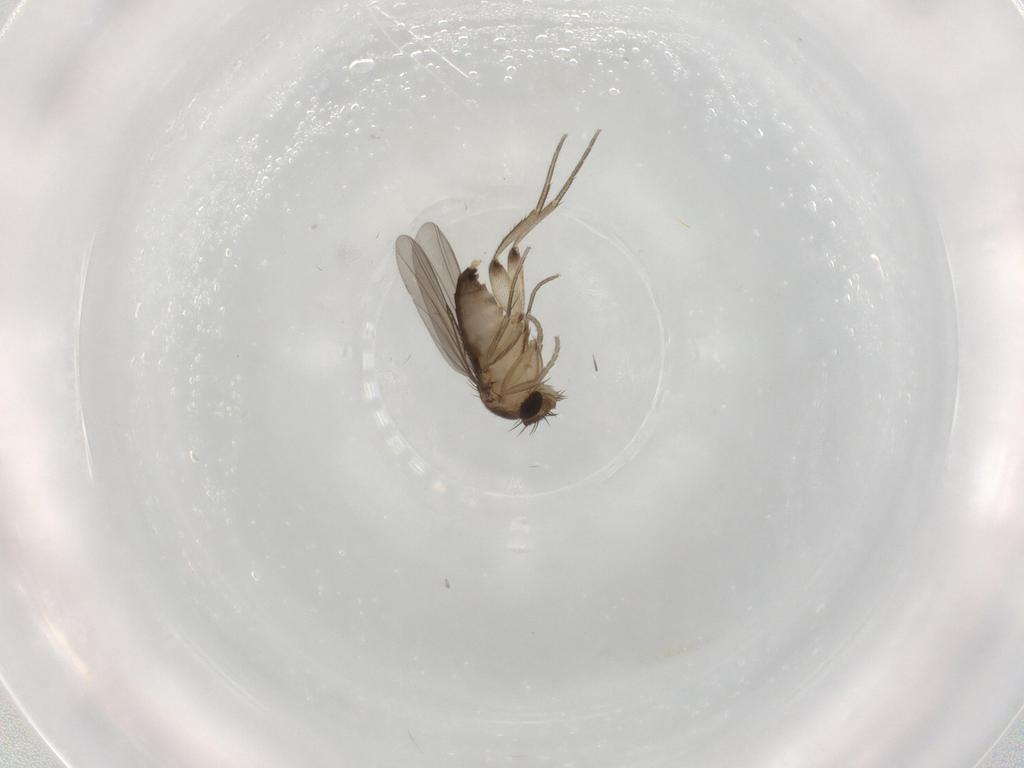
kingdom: Animalia
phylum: Arthropoda
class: Insecta
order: Diptera
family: Phoridae
